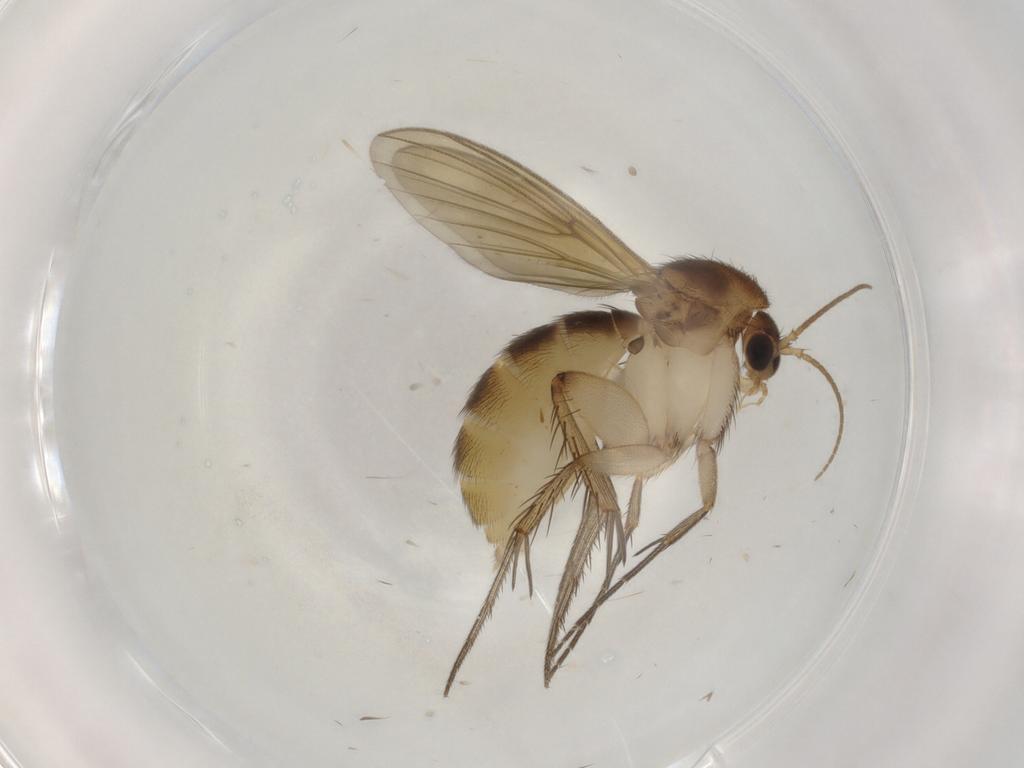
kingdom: Animalia
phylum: Arthropoda
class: Insecta
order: Diptera
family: Mycetophilidae
